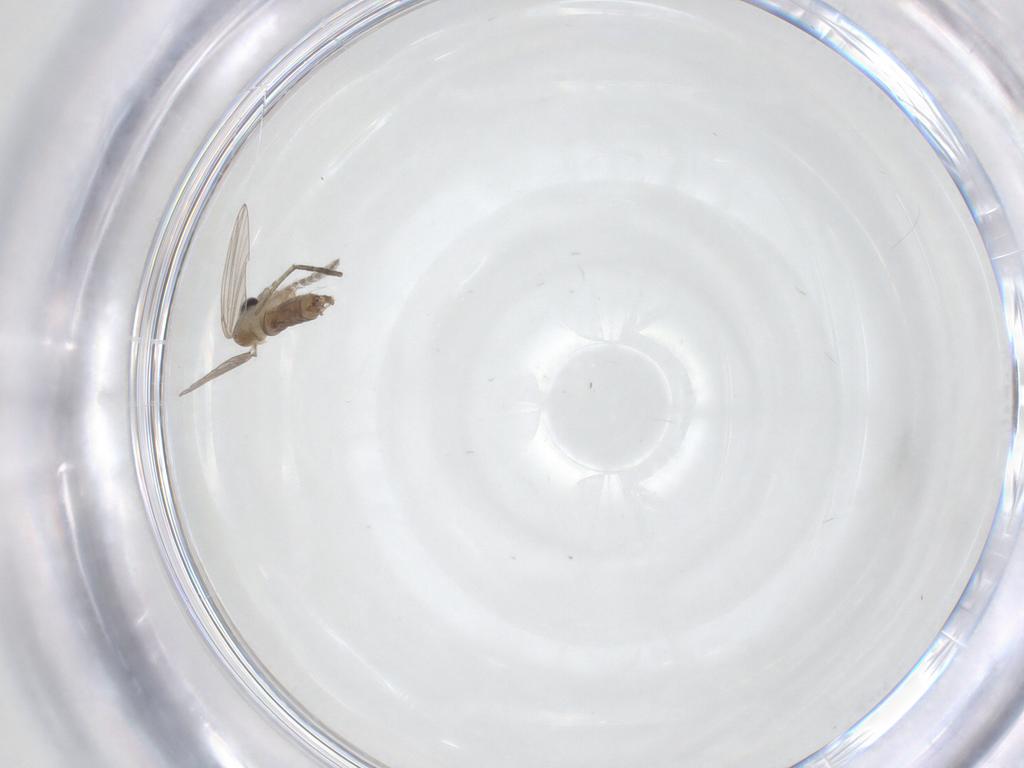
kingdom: Animalia
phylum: Arthropoda
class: Insecta
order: Diptera
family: Psychodidae
